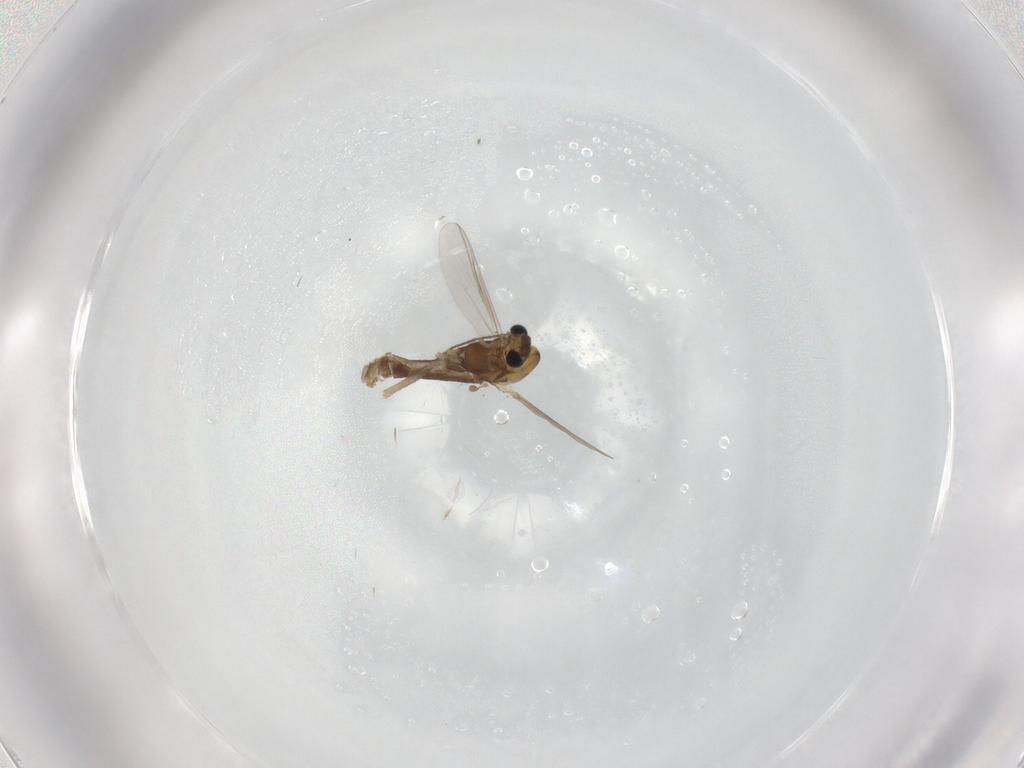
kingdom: Animalia
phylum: Arthropoda
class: Insecta
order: Diptera
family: Chironomidae
